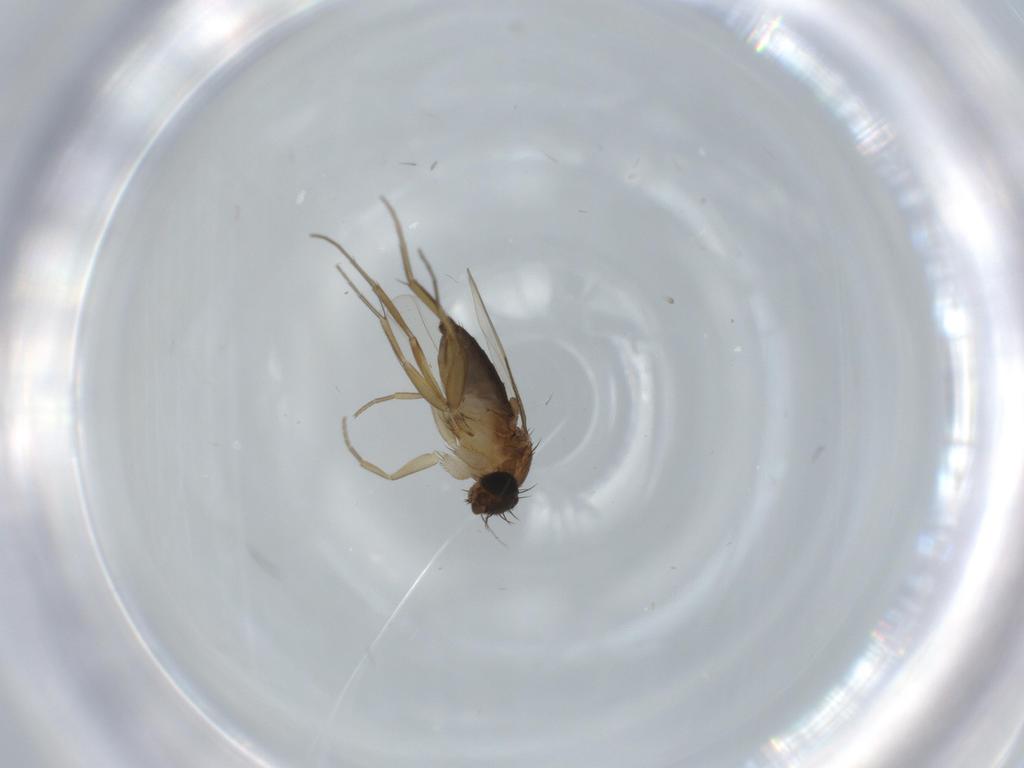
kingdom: Animalia
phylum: Arthropoda
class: Insecta
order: Diptera
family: Phoridae
